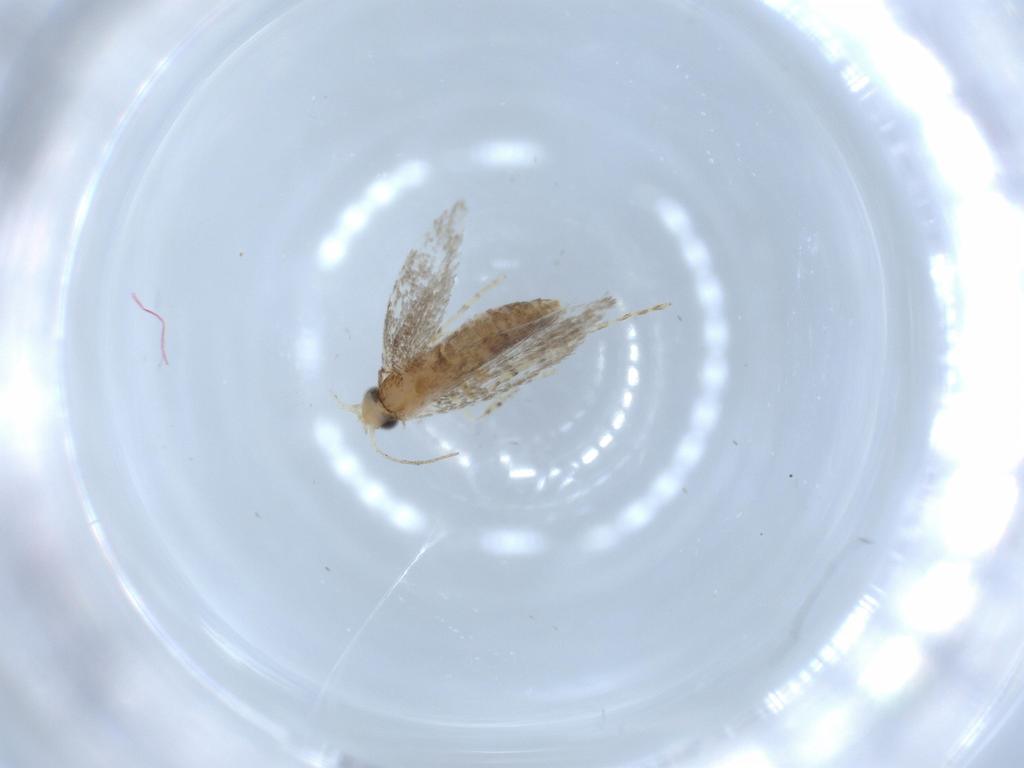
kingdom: Animalia
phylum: Arthropoda
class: Insecta
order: Lepidoptera
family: Argyresthiidae
